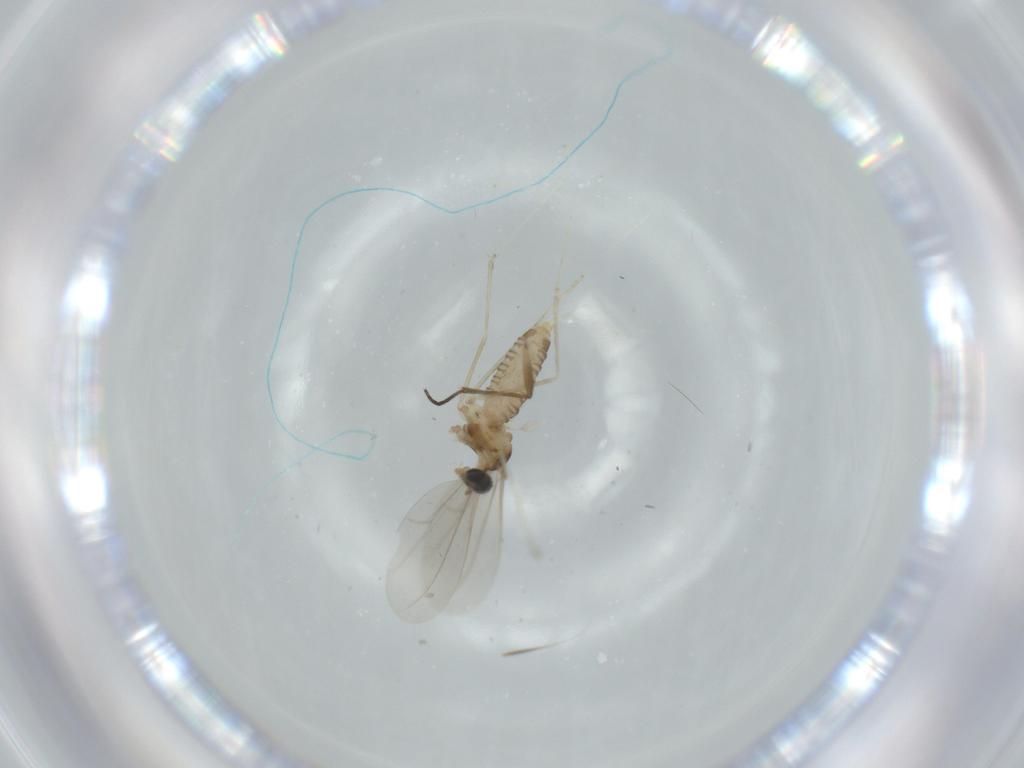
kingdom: Animalia
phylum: Arthropoda
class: Insecta
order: Diptera
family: Cecidomyiidae
